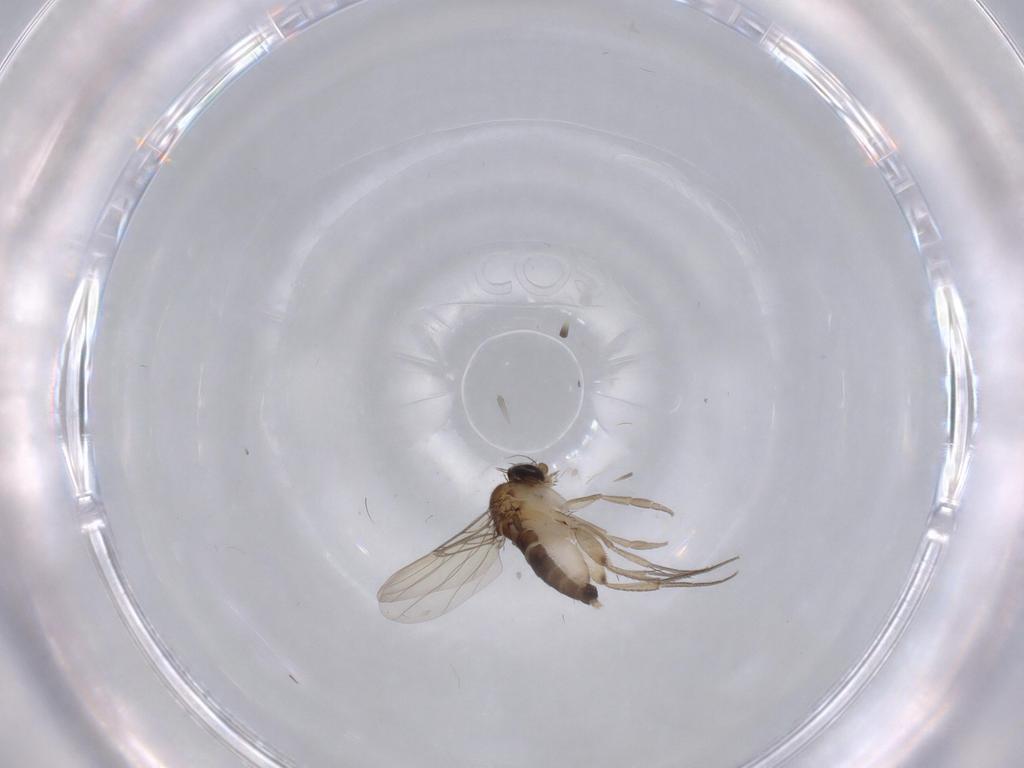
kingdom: Animalia
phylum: Arthropoda
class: Insecta
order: Diptera
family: Phoridae
